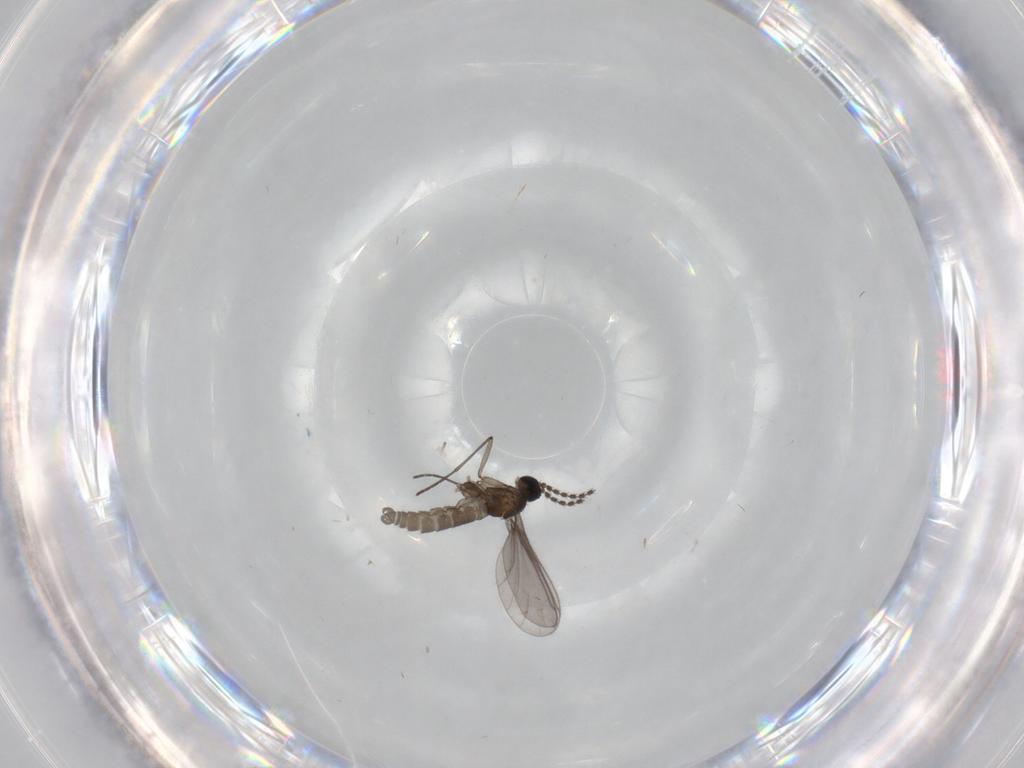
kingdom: Animalia
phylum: Arthropoda
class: Insecta
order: Diptera
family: Sciaridae
